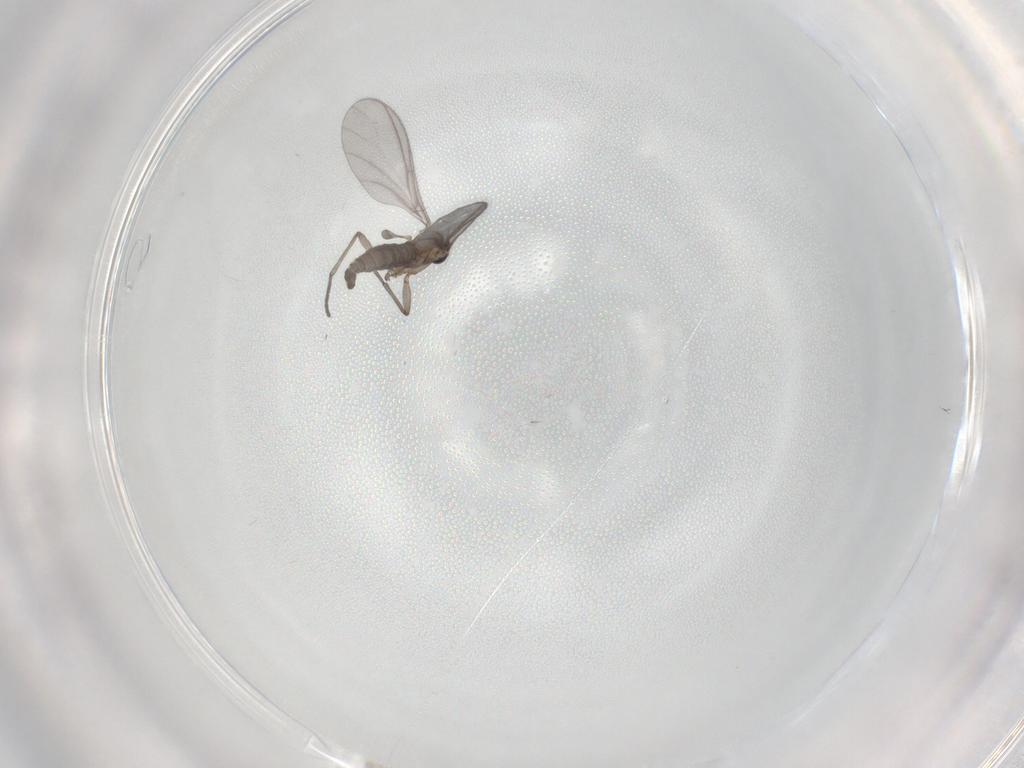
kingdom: Animalia
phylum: Arthropoda
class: Insecta
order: Diptera
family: Sciaridae
